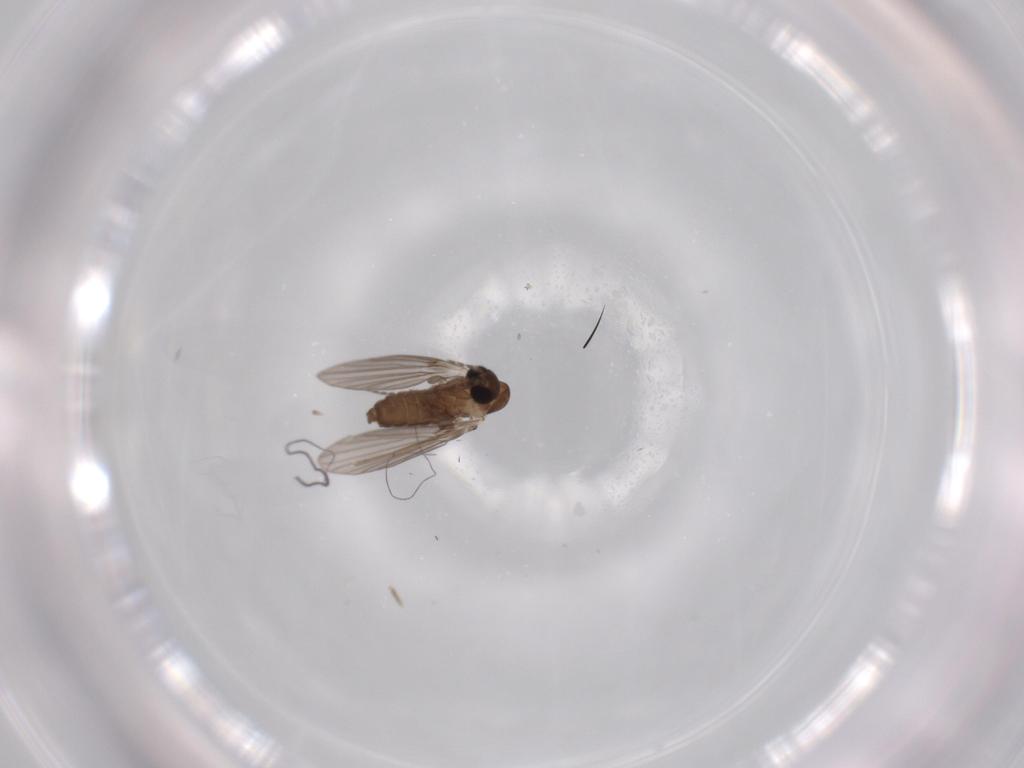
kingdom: Animalia
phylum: Arthropoda
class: Insecta
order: Diptera
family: Psychodidae
